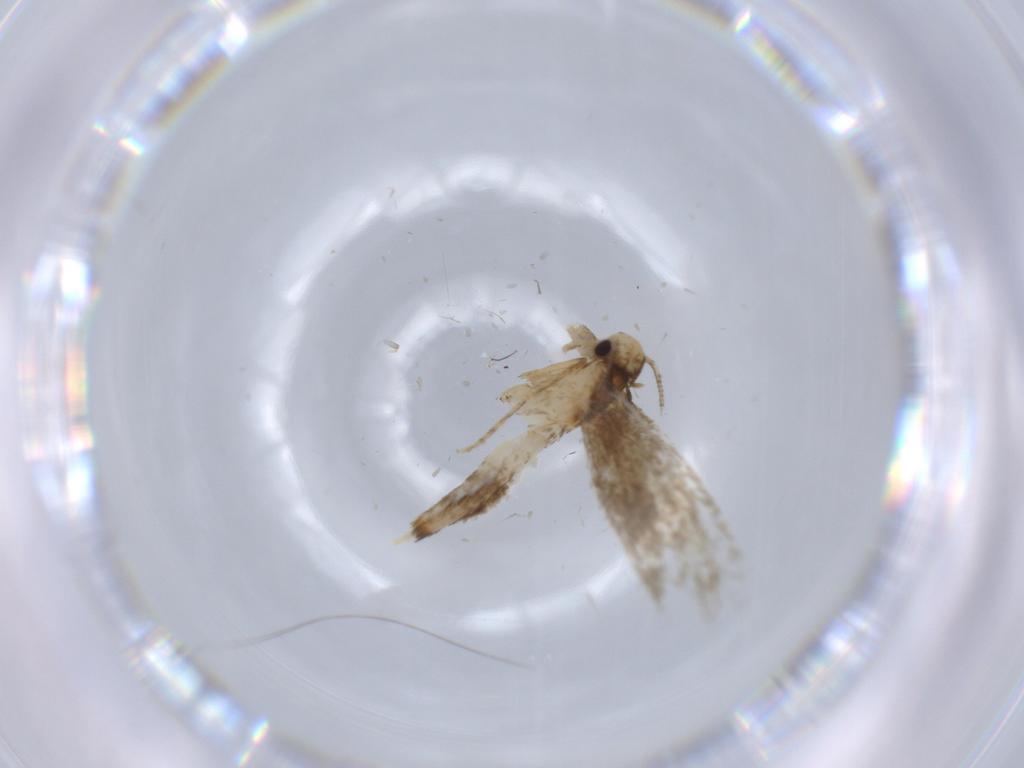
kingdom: Animalia
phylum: Arthropoda
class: Insecta
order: Lepidoptera
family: Tineidae
